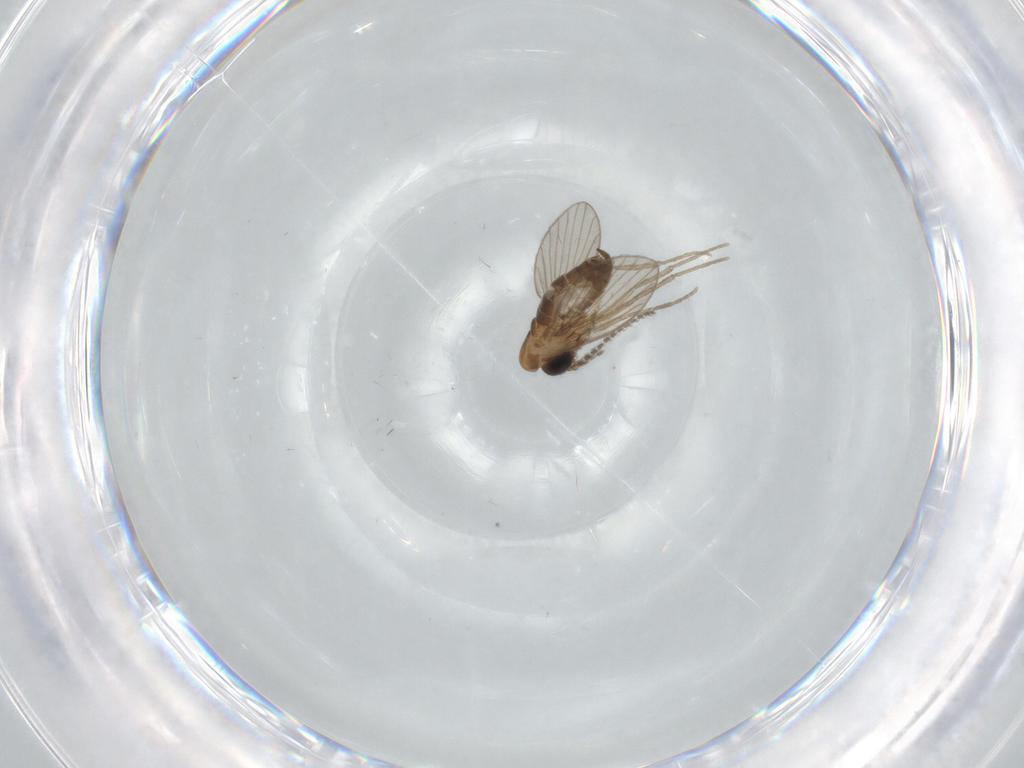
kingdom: Animalia
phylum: Arthropoda
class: Insecta
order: Diptera
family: Psychodidae
